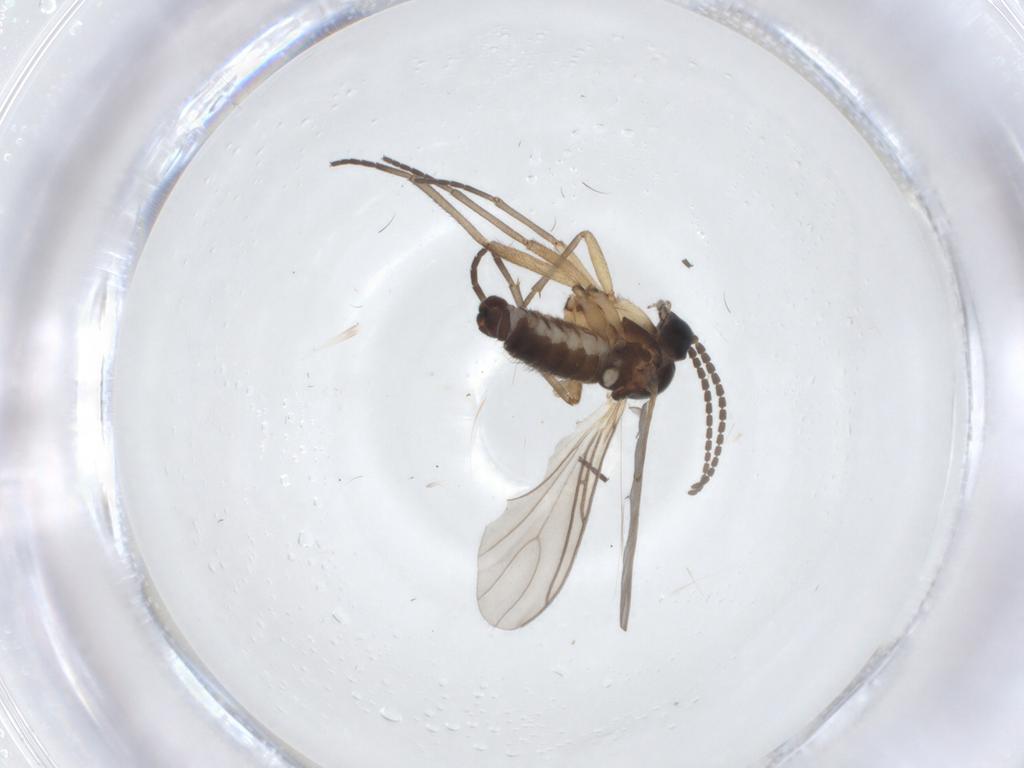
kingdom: Animalia
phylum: Arthropoda
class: Insecta
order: Diptera
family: Sciaridae
